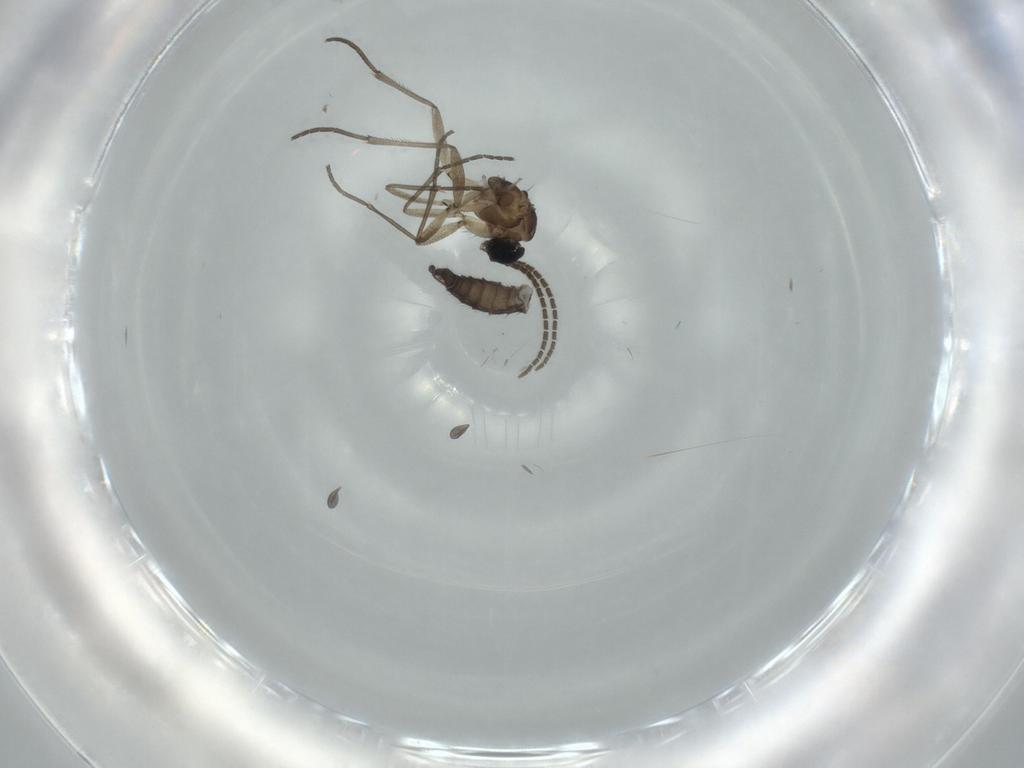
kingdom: Animalia
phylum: Arthropoda
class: Insecta
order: Diptera
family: Sciaridae
